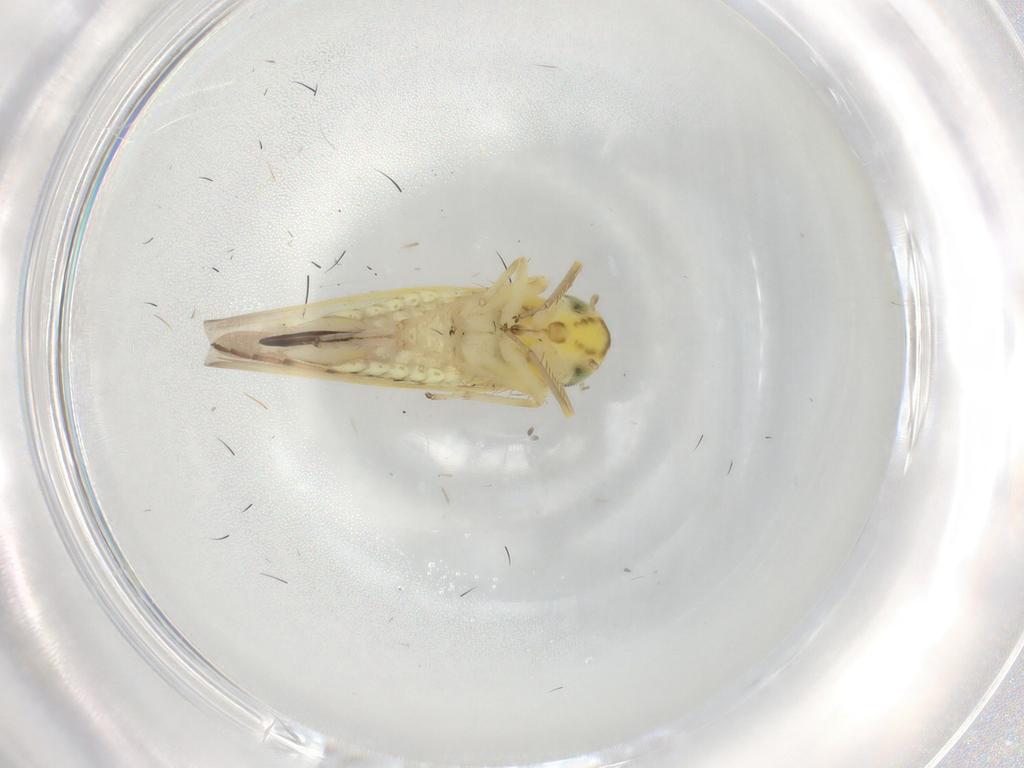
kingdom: Animalia
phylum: Arthropoda
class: Insecta
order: Hemiptera
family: Cicadellidae
